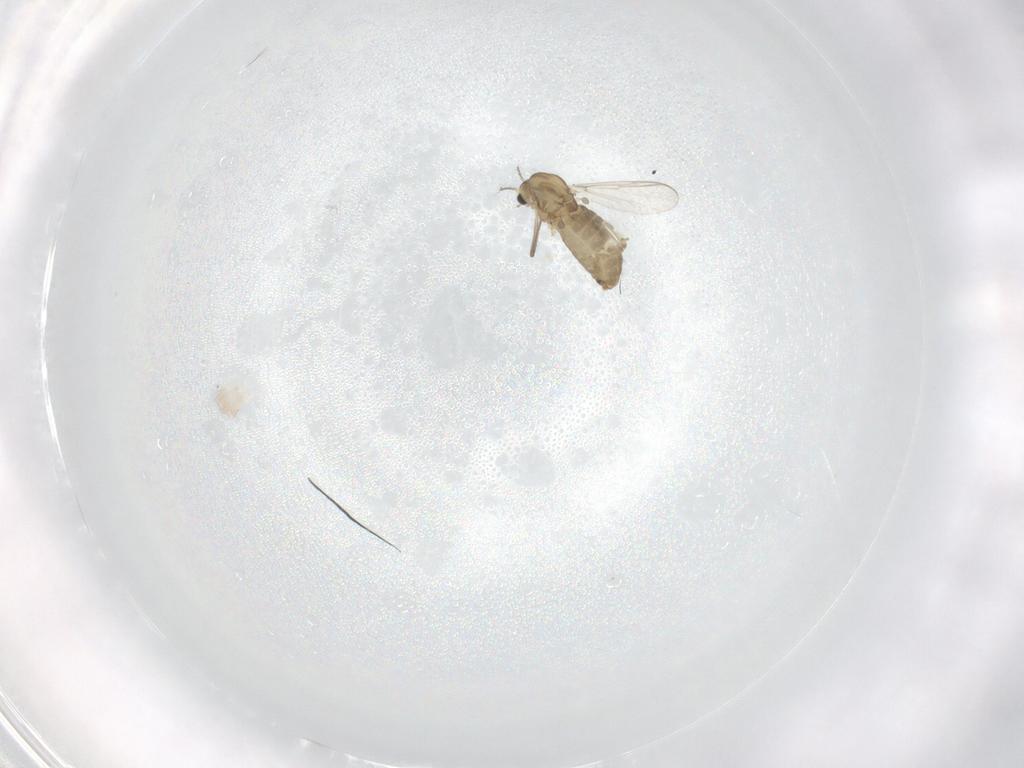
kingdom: Animalia
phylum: Arthropoda
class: Insecta
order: Diptera
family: Chironomidae
